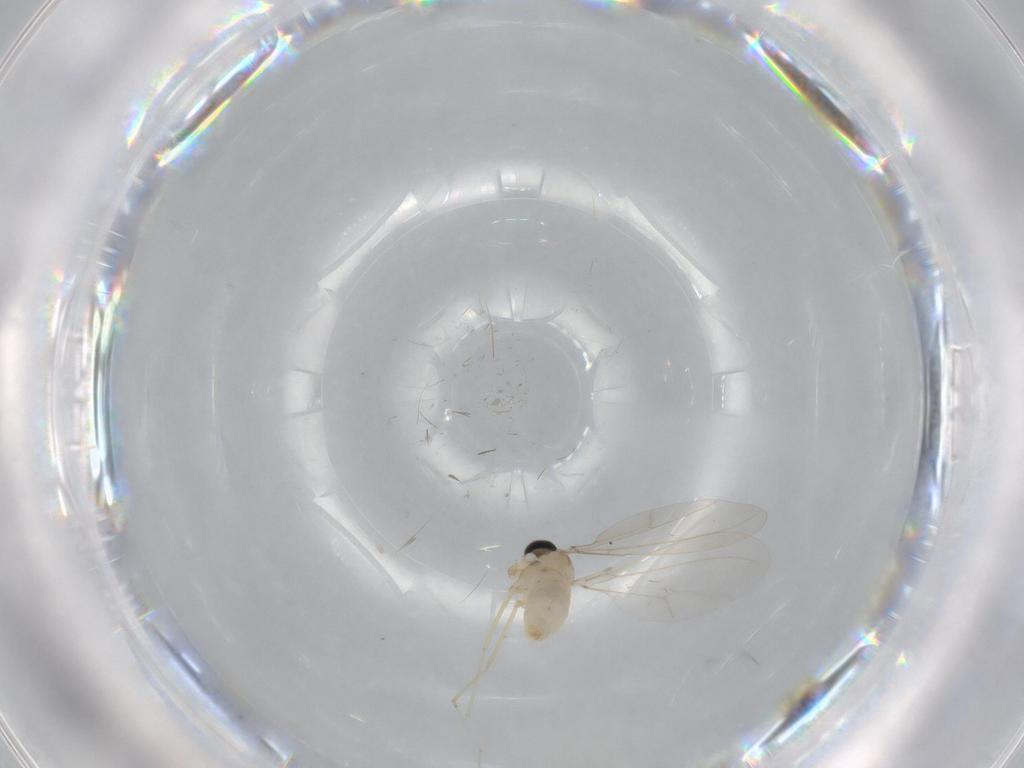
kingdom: Animalia
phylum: Arthropoda
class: Insecta
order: Diptera
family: Cecidomyiidae
